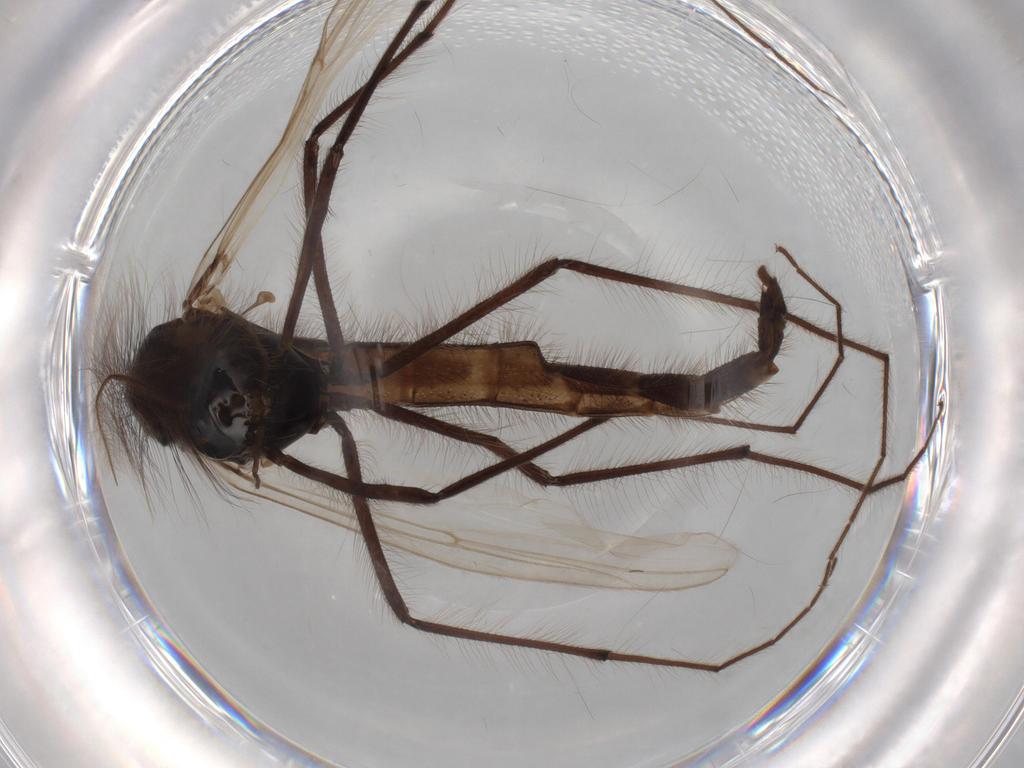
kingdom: Animalia
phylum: Arthropoda
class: Insecta
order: Diptera
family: Chironomidae
